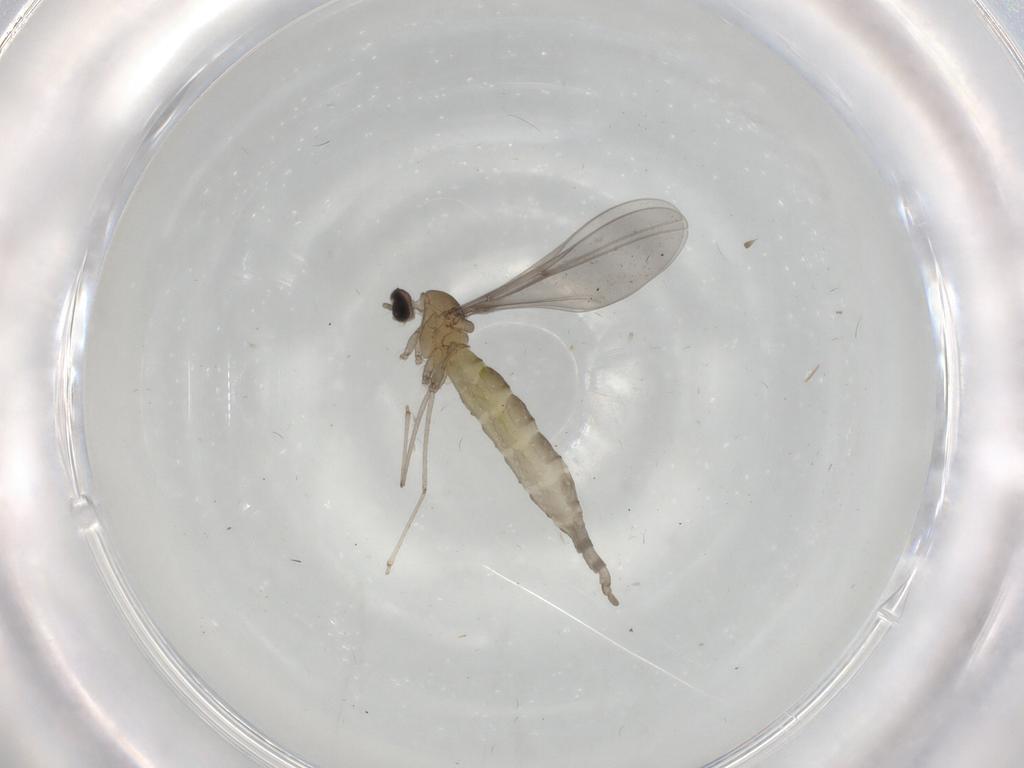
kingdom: Animalia
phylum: Arthropoda
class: Insecta
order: Diptera
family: Cecidomyiidae
